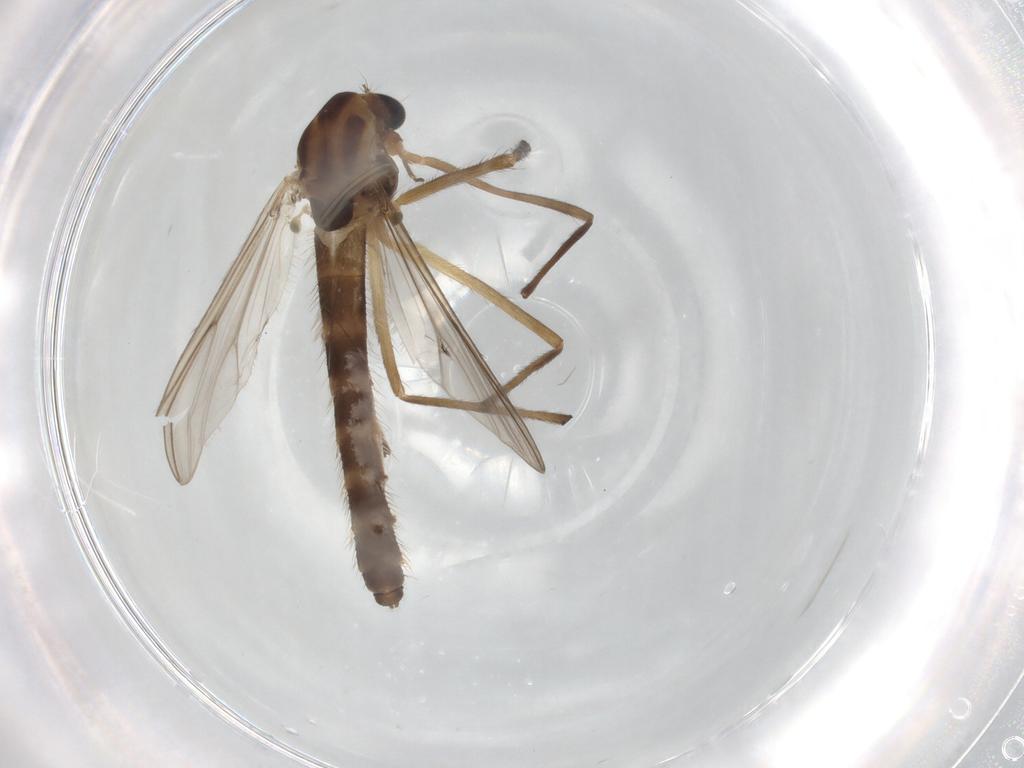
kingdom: Animalia
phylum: Arthropoda
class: Insecta
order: Diptera
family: Chironomidae
